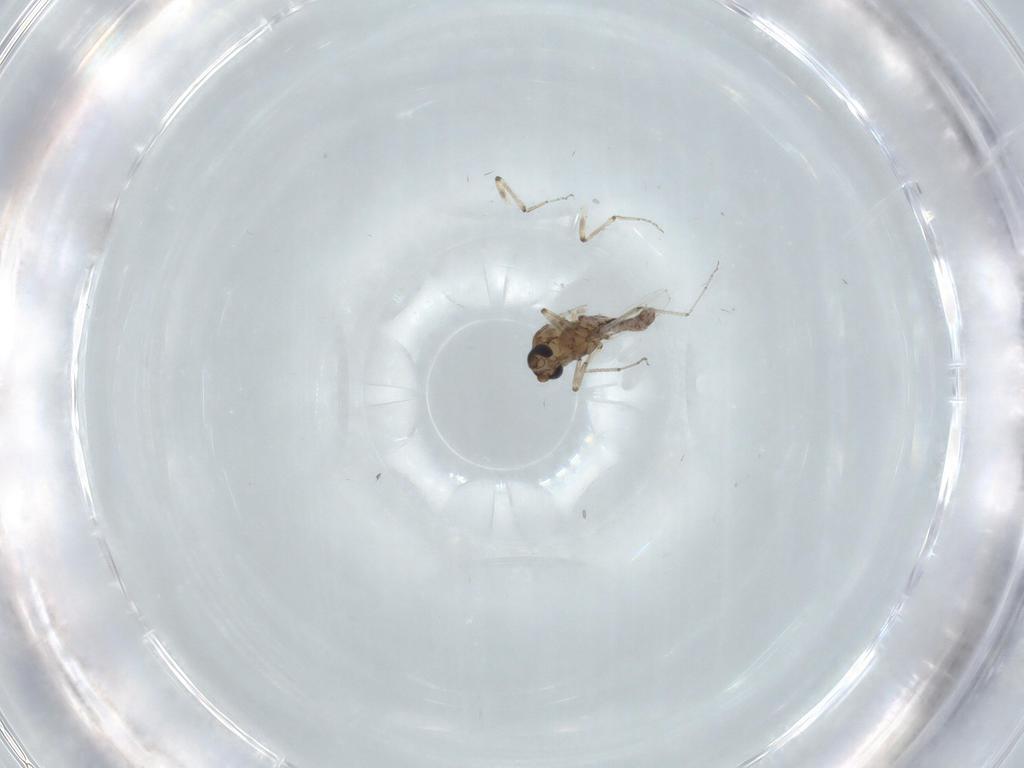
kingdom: Animalia
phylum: Arthropoda
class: Insecta
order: Diptera
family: Ceratopogonidae
